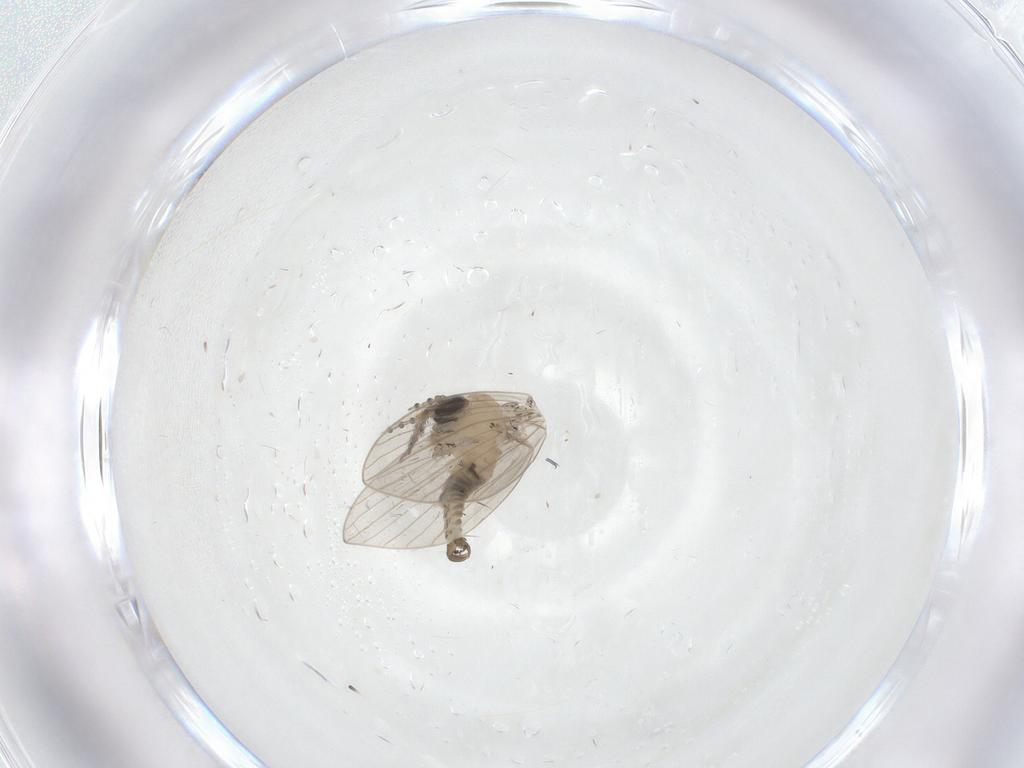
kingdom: Animalia
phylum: Arthropoda
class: Insecta
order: Diptera
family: Psychodidae
